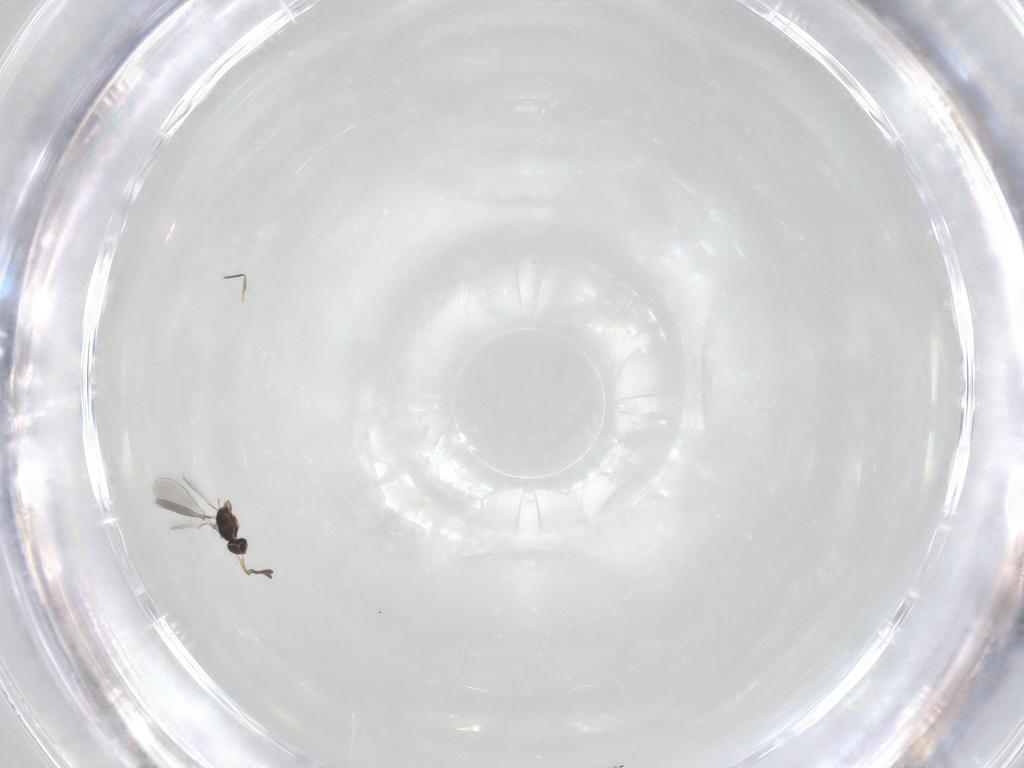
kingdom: Animalia
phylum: Arthropoda
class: Insecta
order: Hymenoptera
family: Mymaridae
